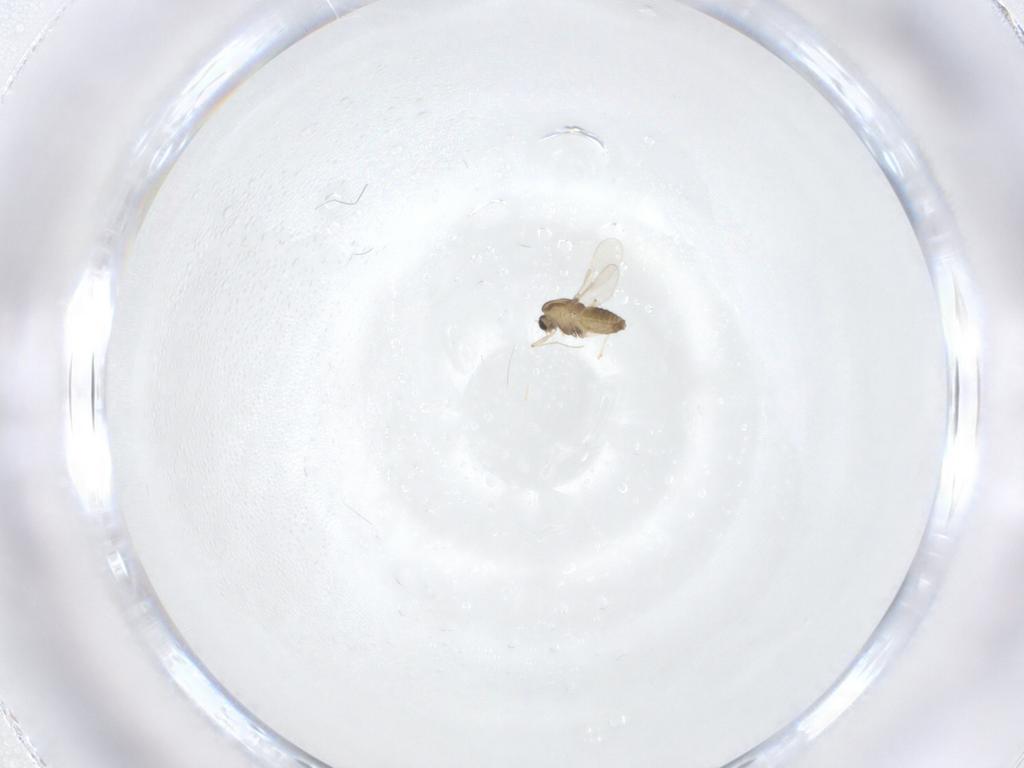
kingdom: Animalia
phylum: Arthropoda
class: Insecta
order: Diptera
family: Chironomidae
